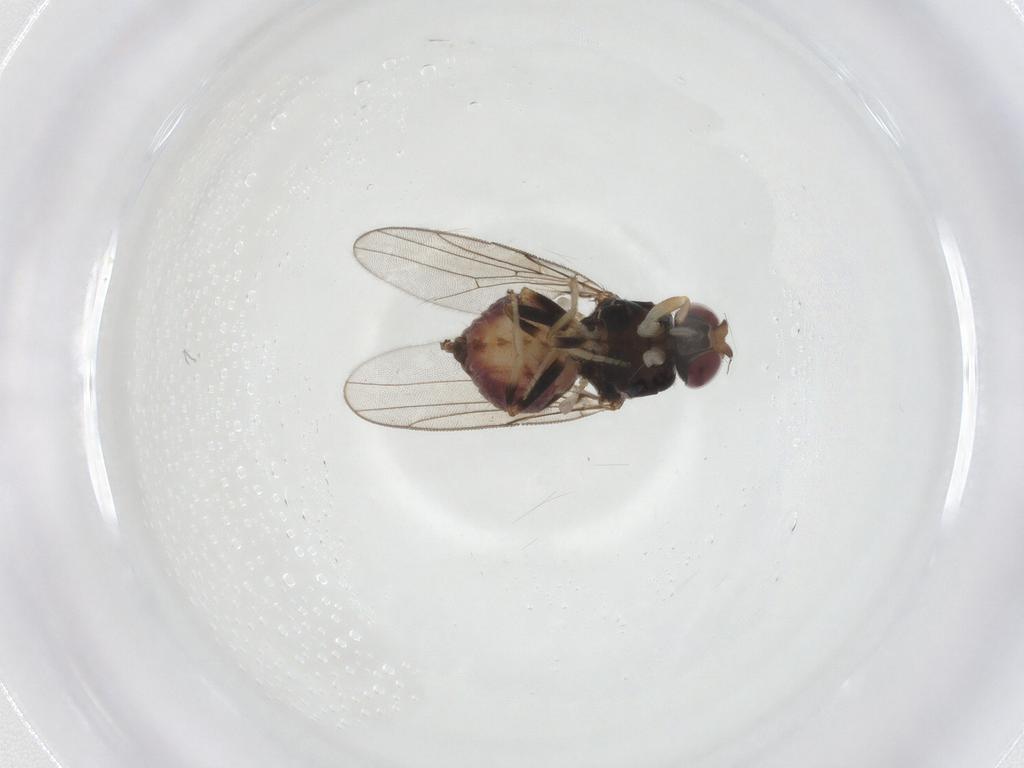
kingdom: Animalia
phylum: Arthropoda
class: Insecta
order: Diptera
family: Chloropidae
